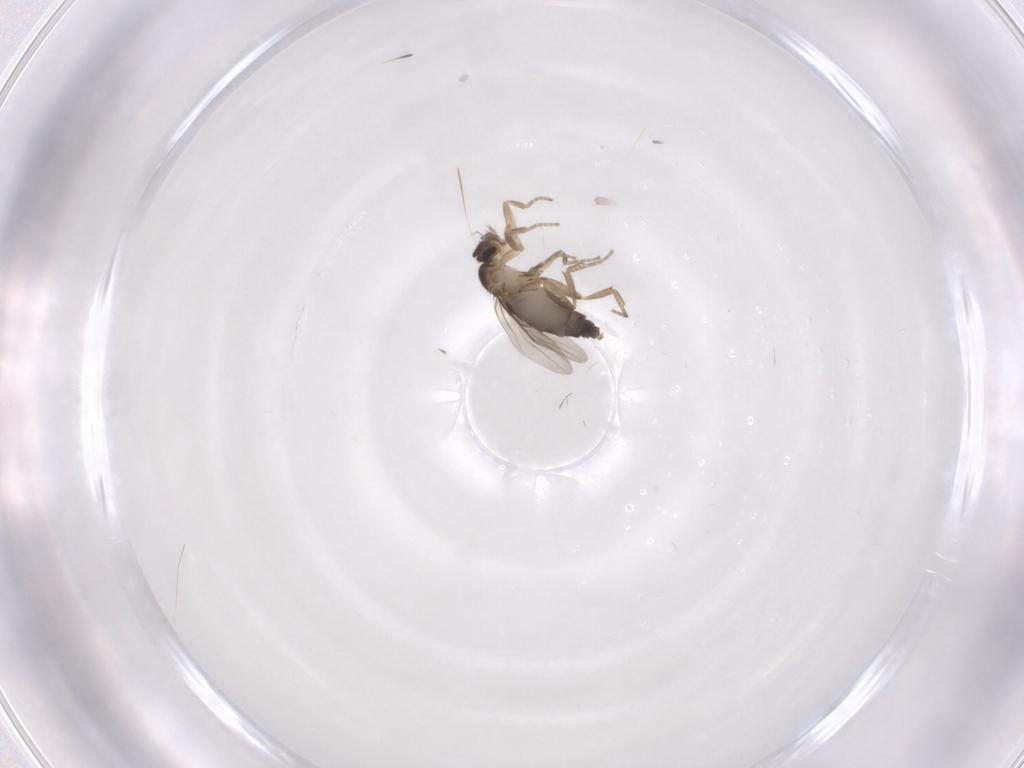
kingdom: Animalia
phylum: Arthropoda
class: Insecta
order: Diptera
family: Phoridae
